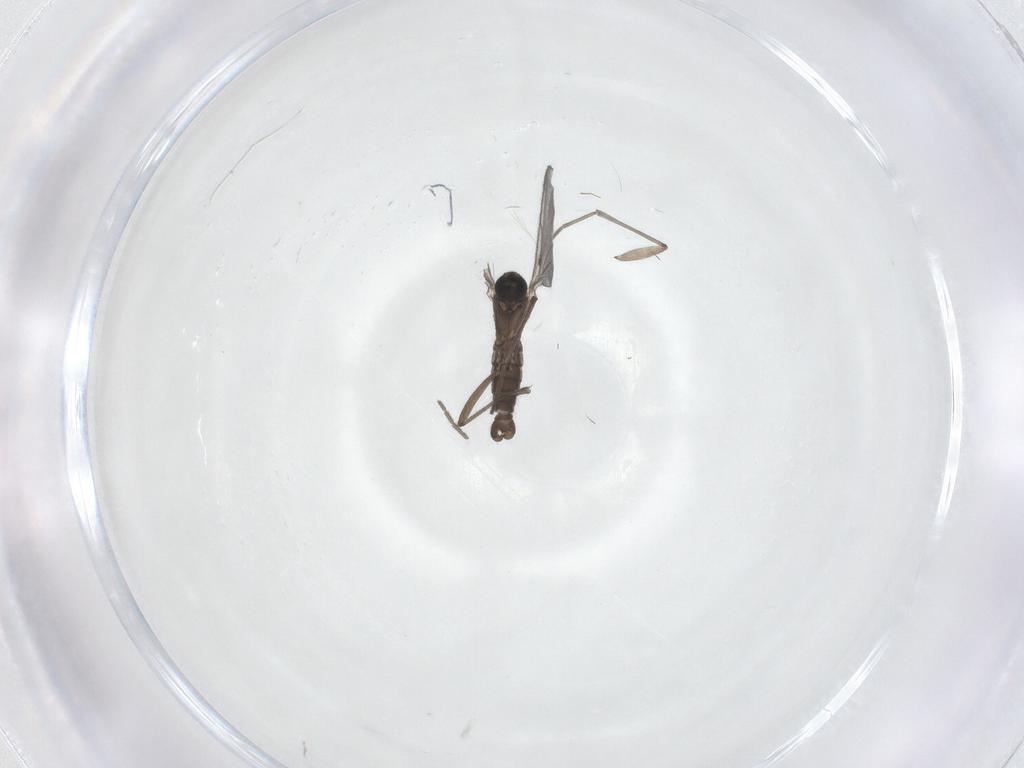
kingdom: Animalia
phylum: Arthropoda
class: Insecta
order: Diptera
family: Sciaridae
